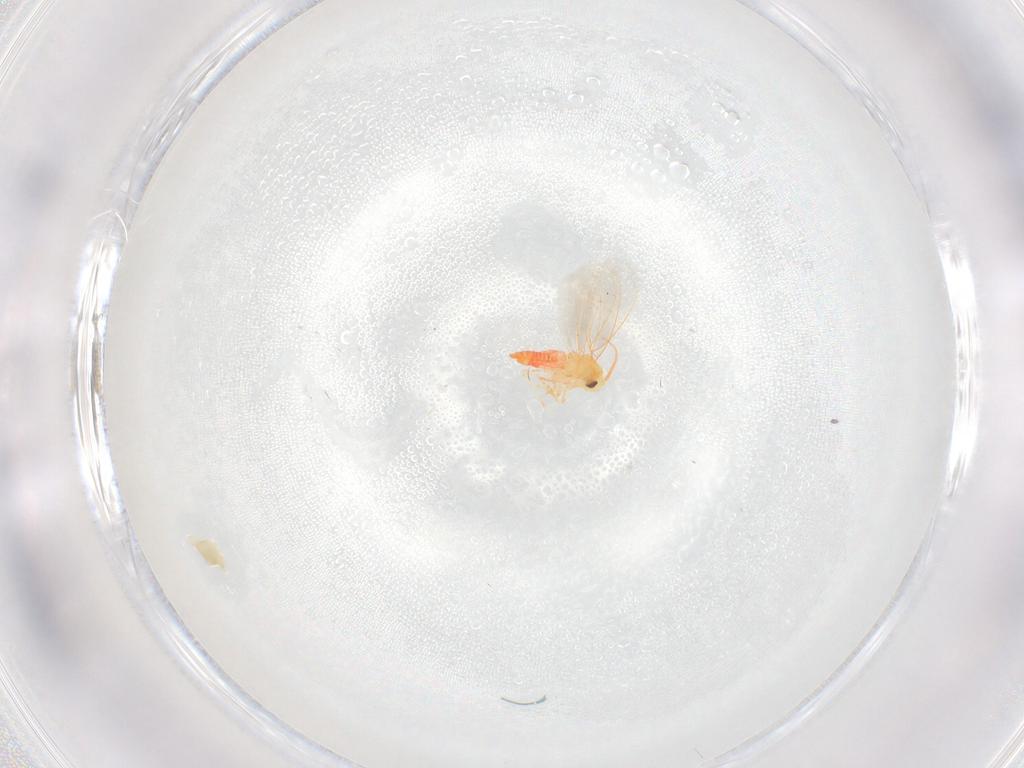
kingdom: Animalia
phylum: Arthropoda
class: Insecta
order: Hemiptera
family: Aleyrodidae
